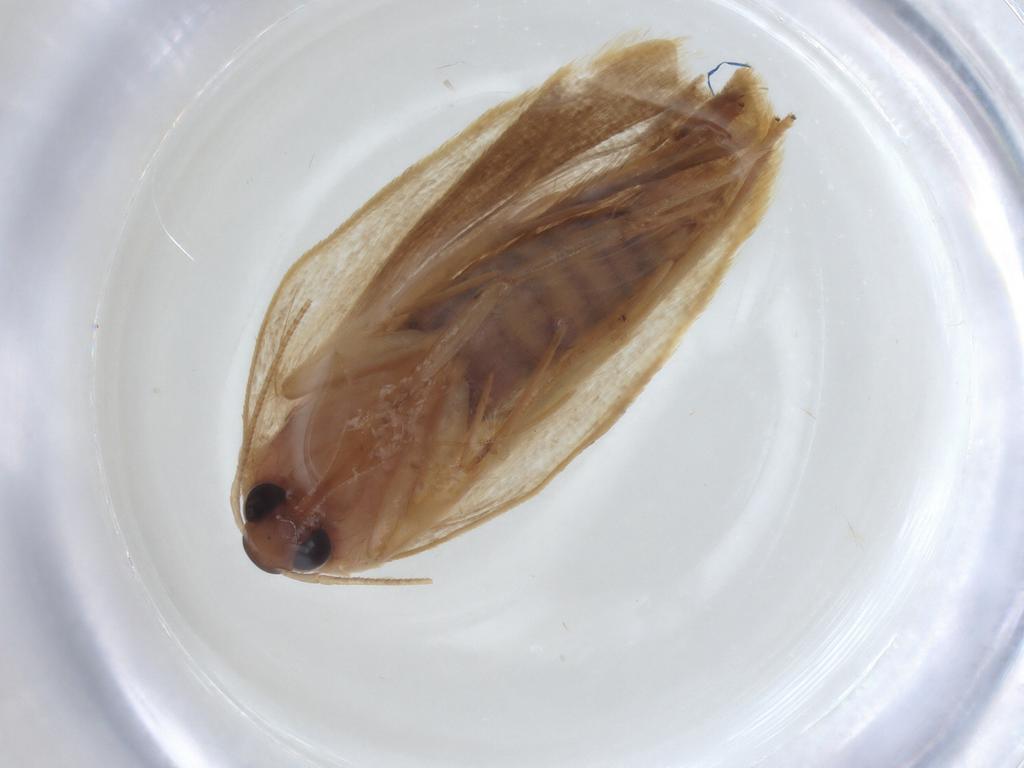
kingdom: Animalia
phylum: Arthropoda
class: Insecta
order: Lepidoptera
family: Depressariidae
